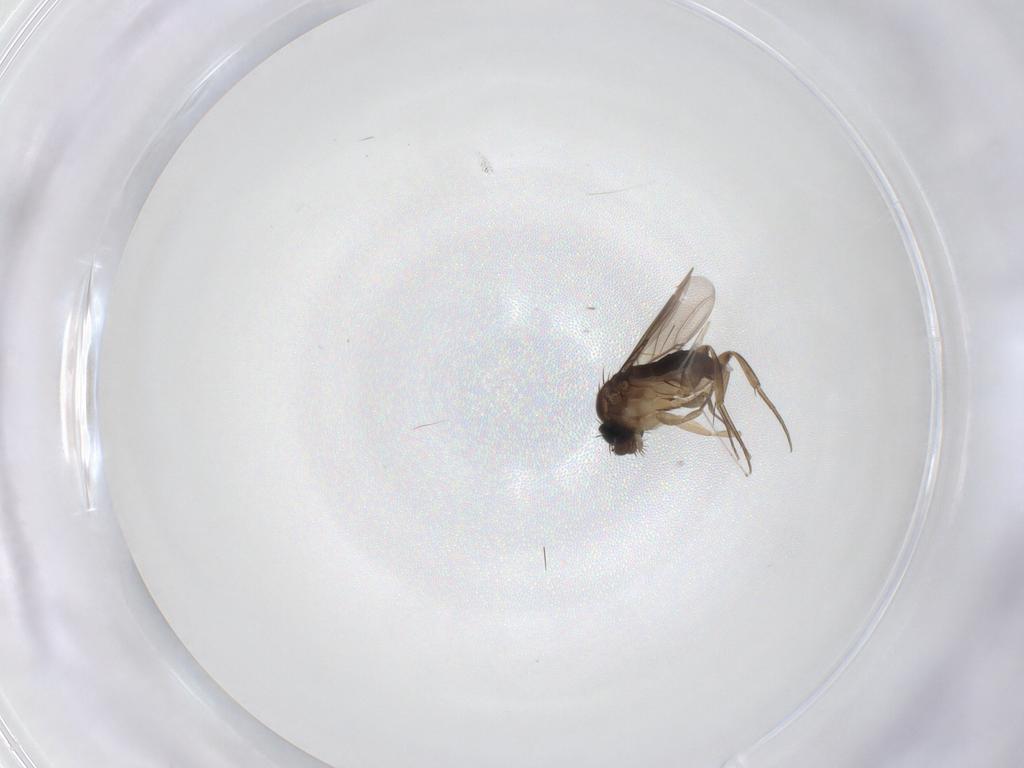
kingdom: Animalia
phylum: Arthropoda
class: Insecta
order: Diptera
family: Phoridae
